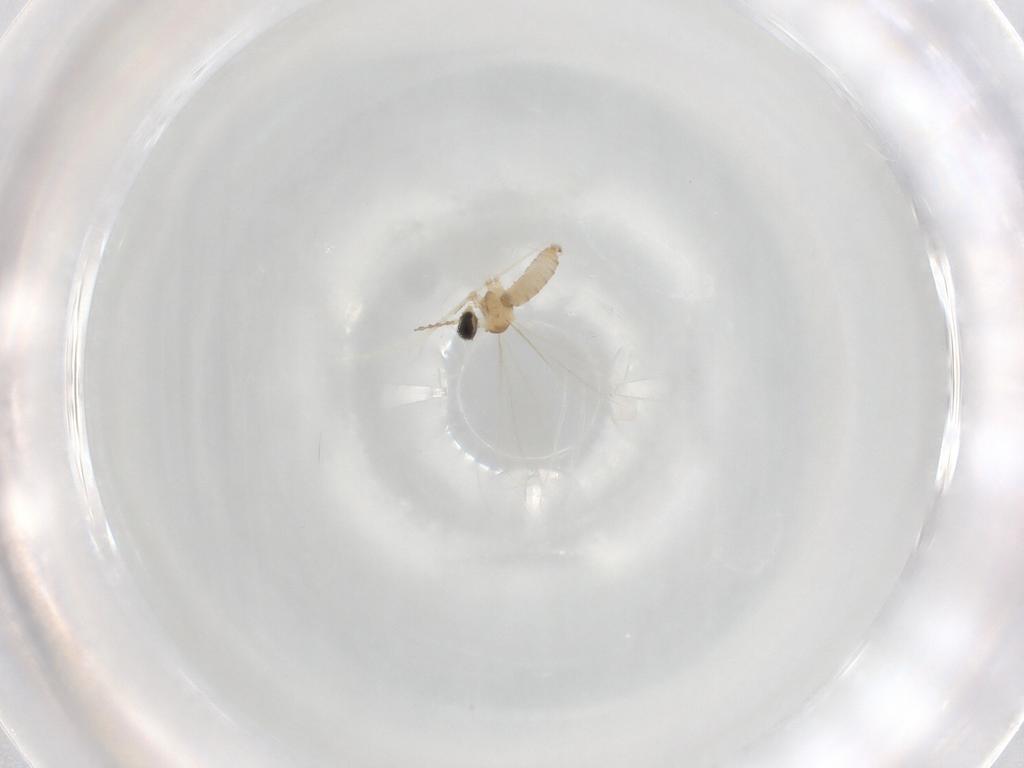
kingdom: Animalia
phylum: Arthropoda
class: Insecta
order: Diptera
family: Cecidomyiidae
